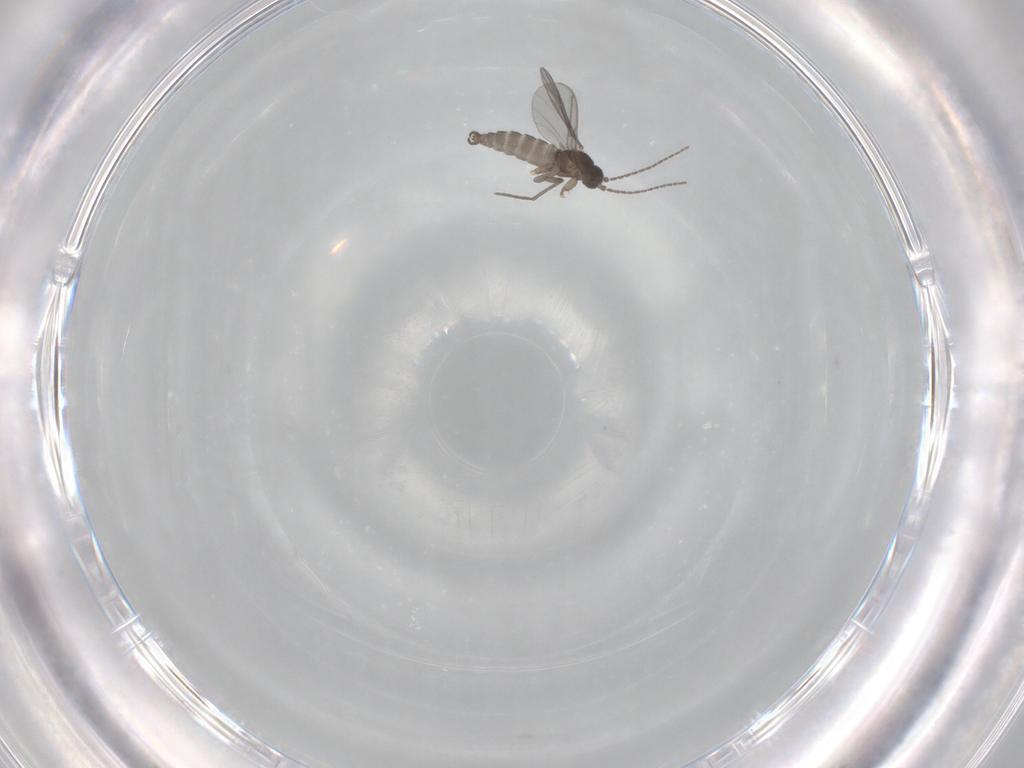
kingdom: Animalia
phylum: Arthropoda
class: Insecta
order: Diptera
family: Sciaridae
